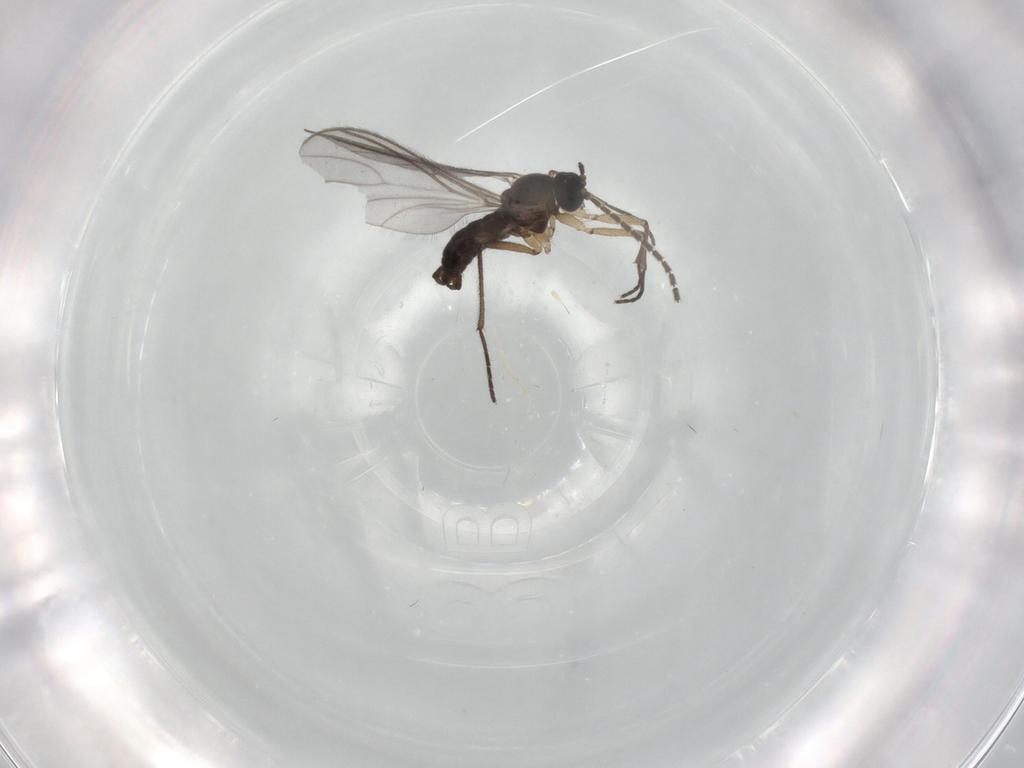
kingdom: Animalia
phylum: Arthropoda
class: Insecta
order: Diptera
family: Sciaridae
